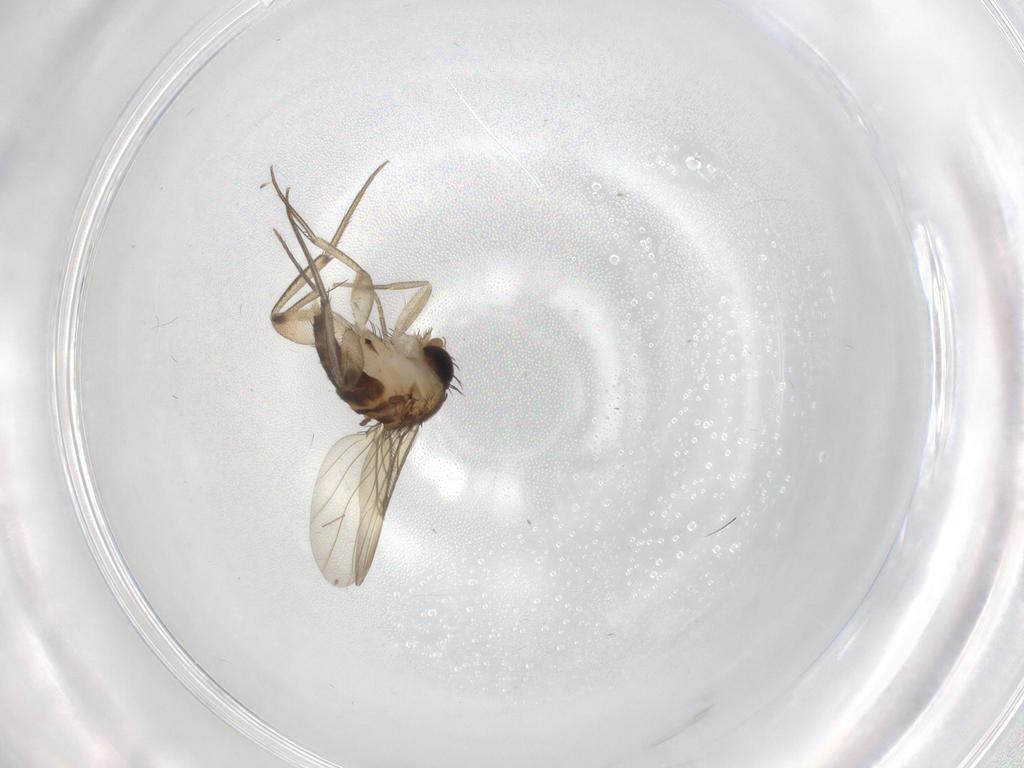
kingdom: Animalia
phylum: Arthropoda
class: Insecta
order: Diptera
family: Phoridae
